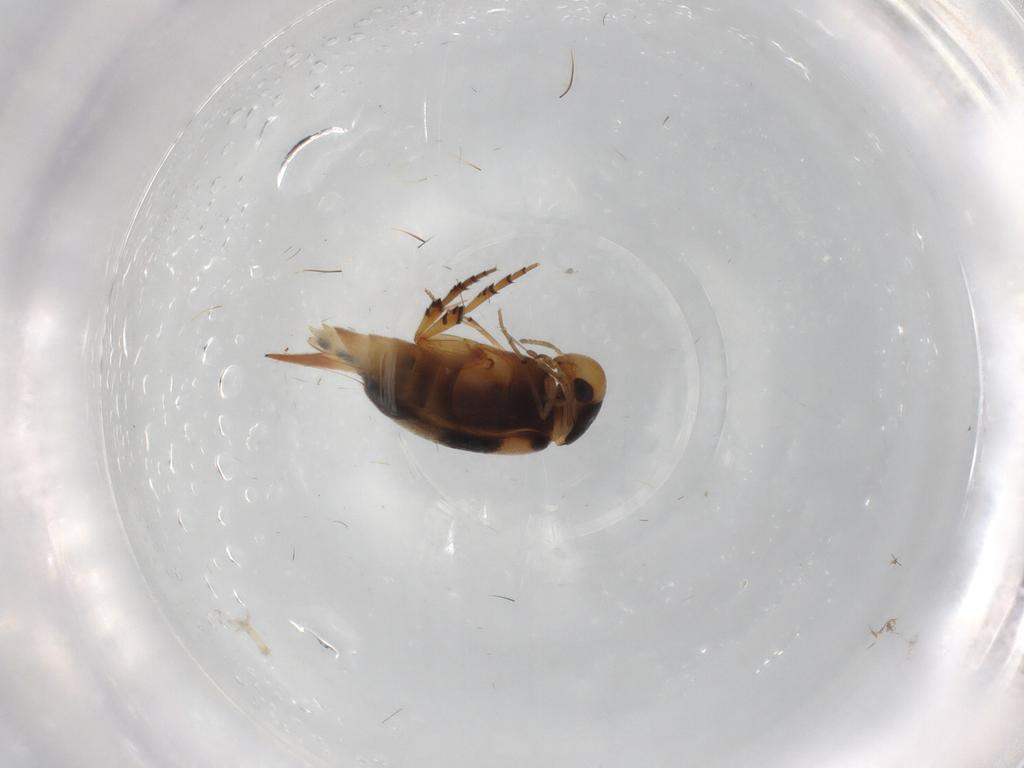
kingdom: Animalia
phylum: Arthropoda
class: Insecta
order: Coleoptera
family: Mordellidae
